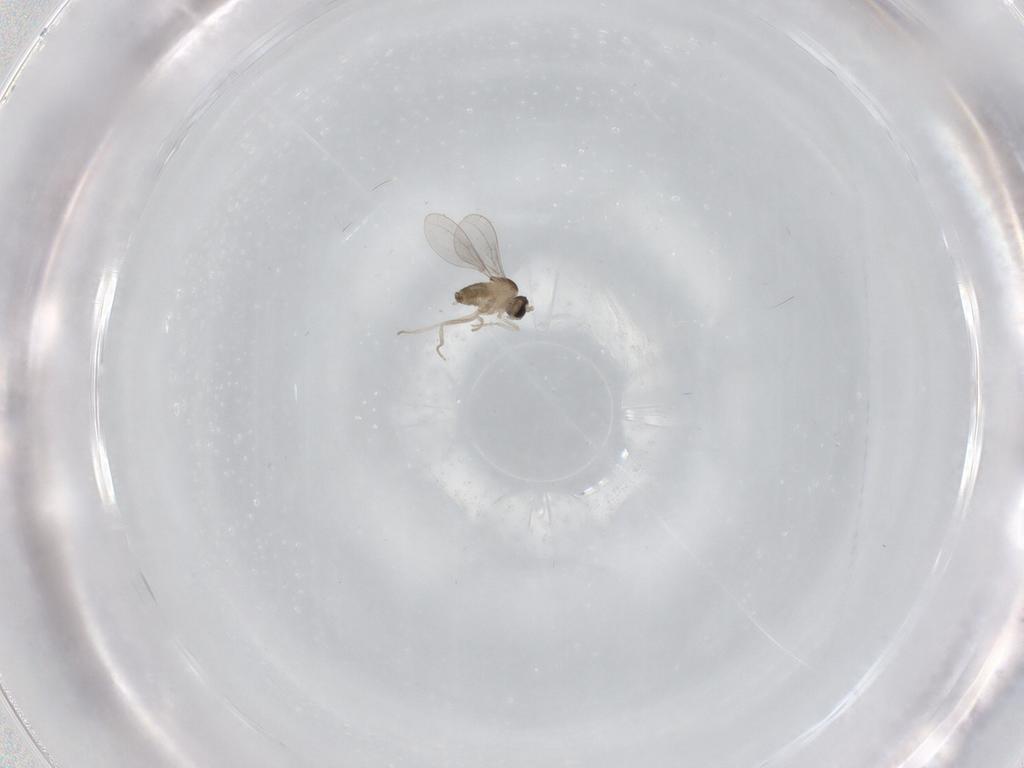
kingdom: Animalia
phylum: Arthropoda
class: Insecta
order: Diptera
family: Cecidomyiidae
